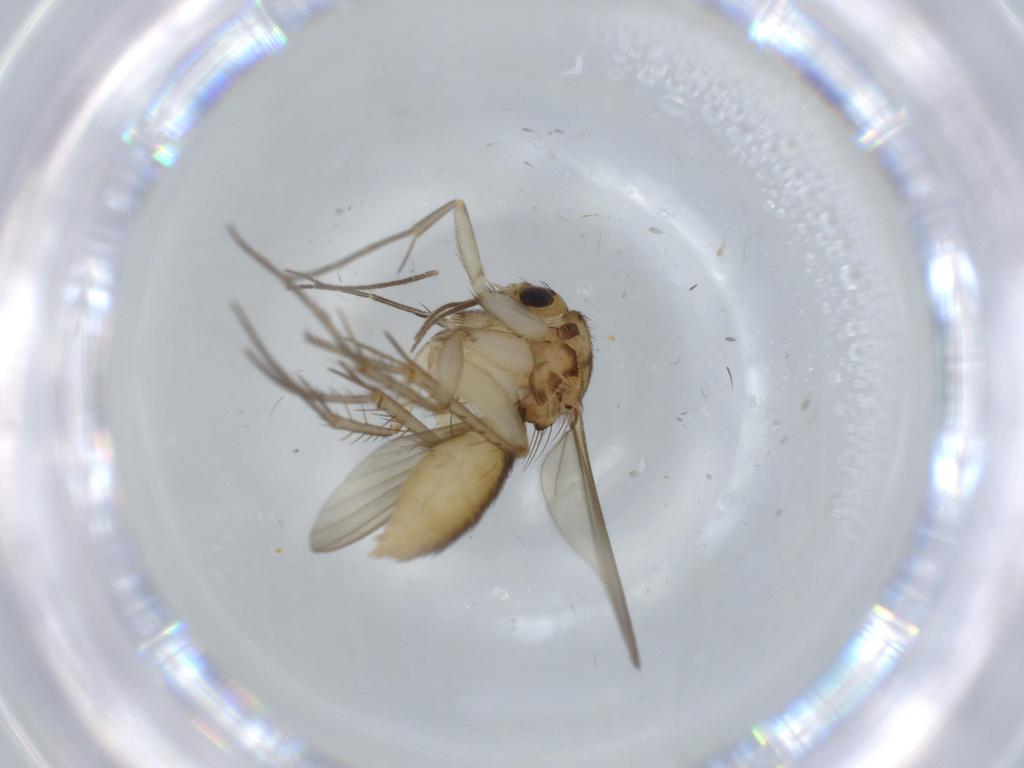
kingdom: Animalia
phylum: Arthropoda
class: Insecta
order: Diptera
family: Mycetophilidae
